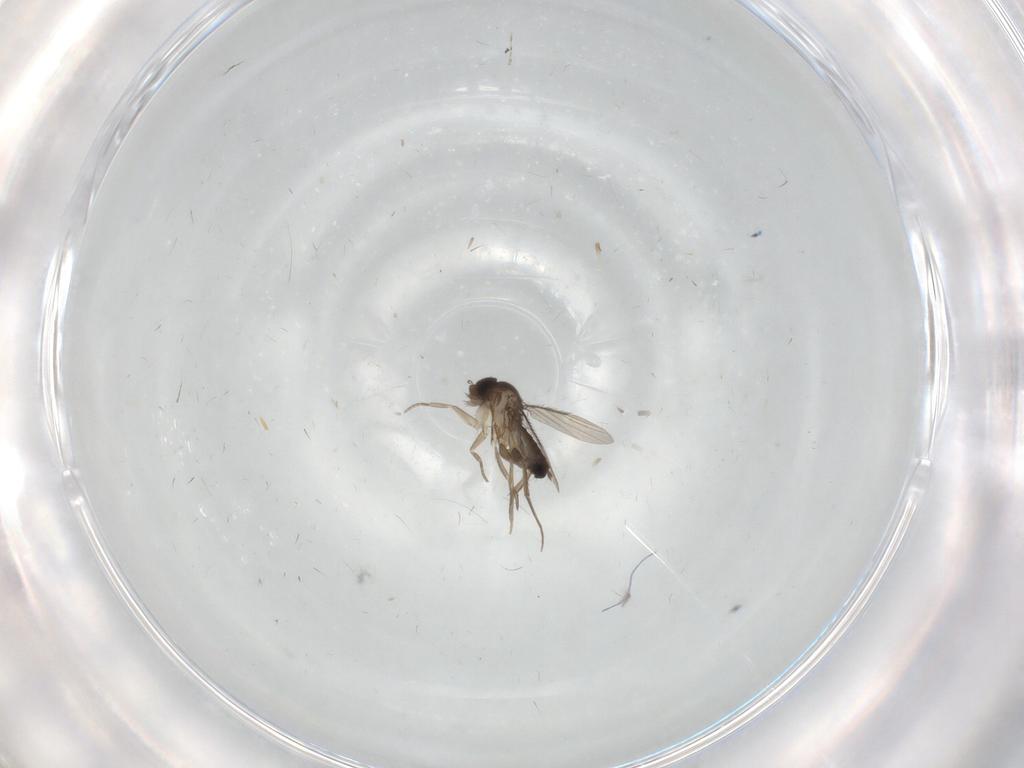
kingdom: Animalia
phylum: Arthropoda
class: Insecta
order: Diptera
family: Phoridae
